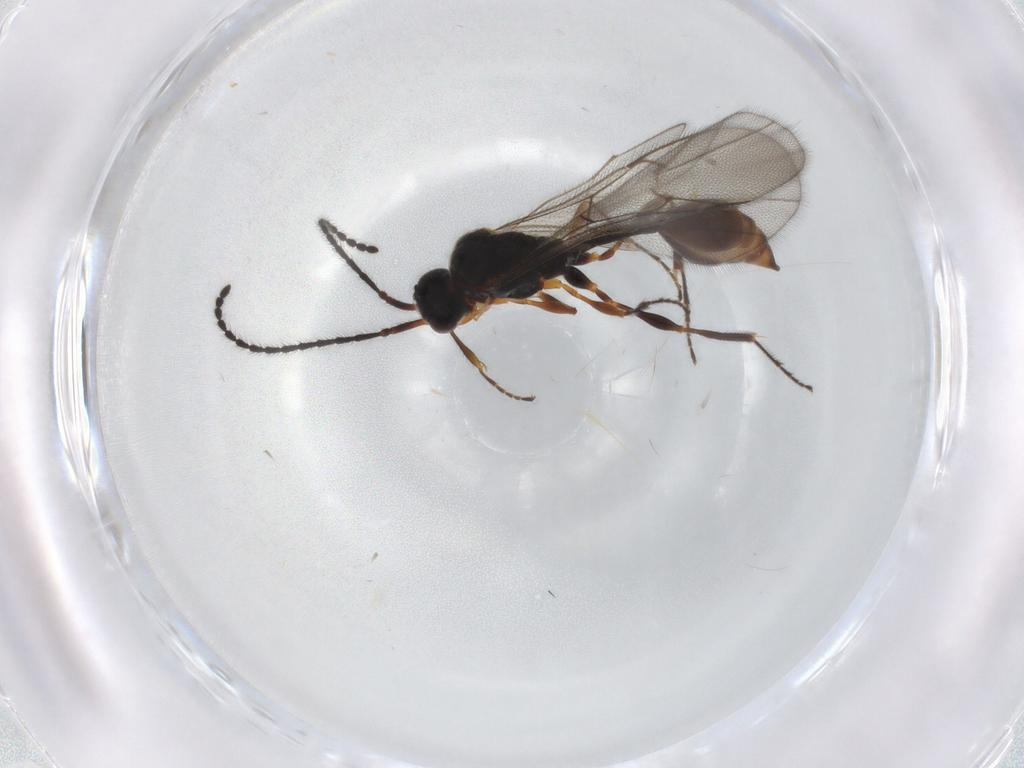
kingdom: Animalia
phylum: Arthropoda
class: Insecta
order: Hymenoptera
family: Diapriidae
